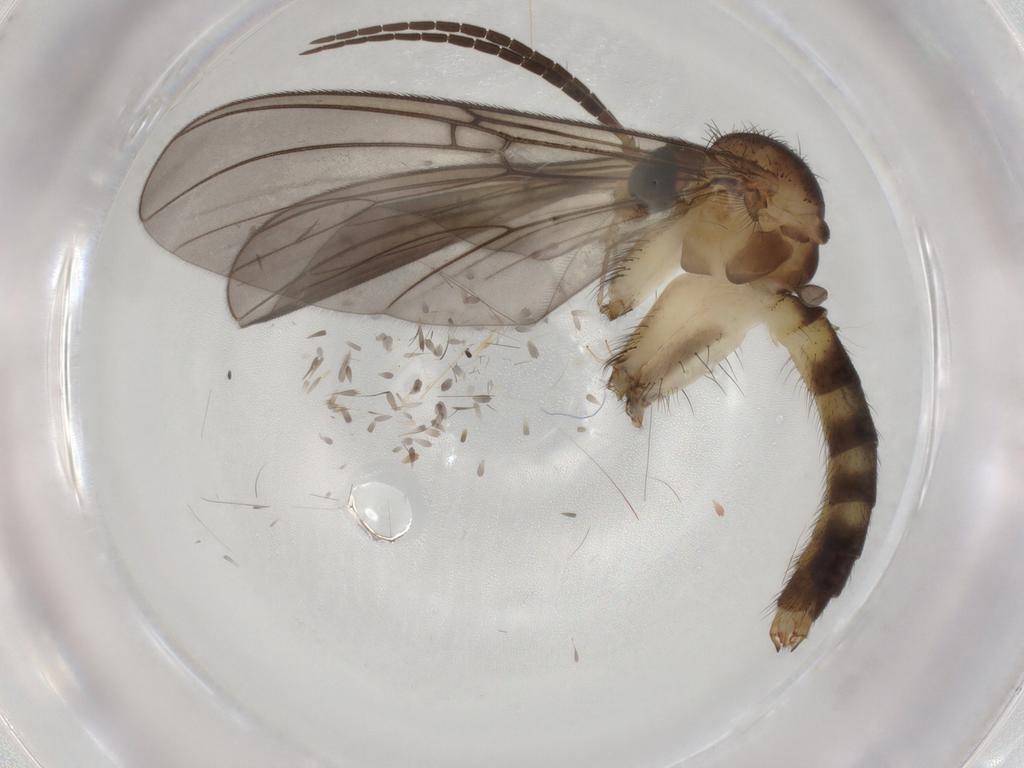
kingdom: Animalia
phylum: Arthropoda
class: Insecta
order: Diptera
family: Mycetophilidae
